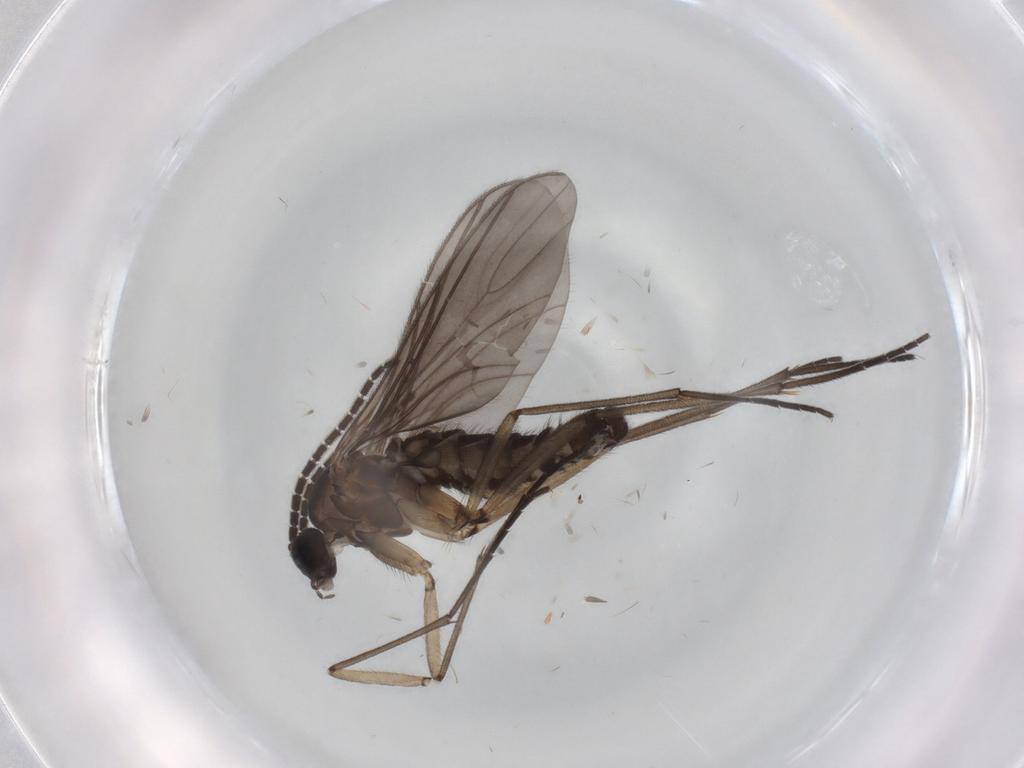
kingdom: Animalia
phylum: Arthropoda
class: Insecta
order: Diptera
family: Sciaridae
